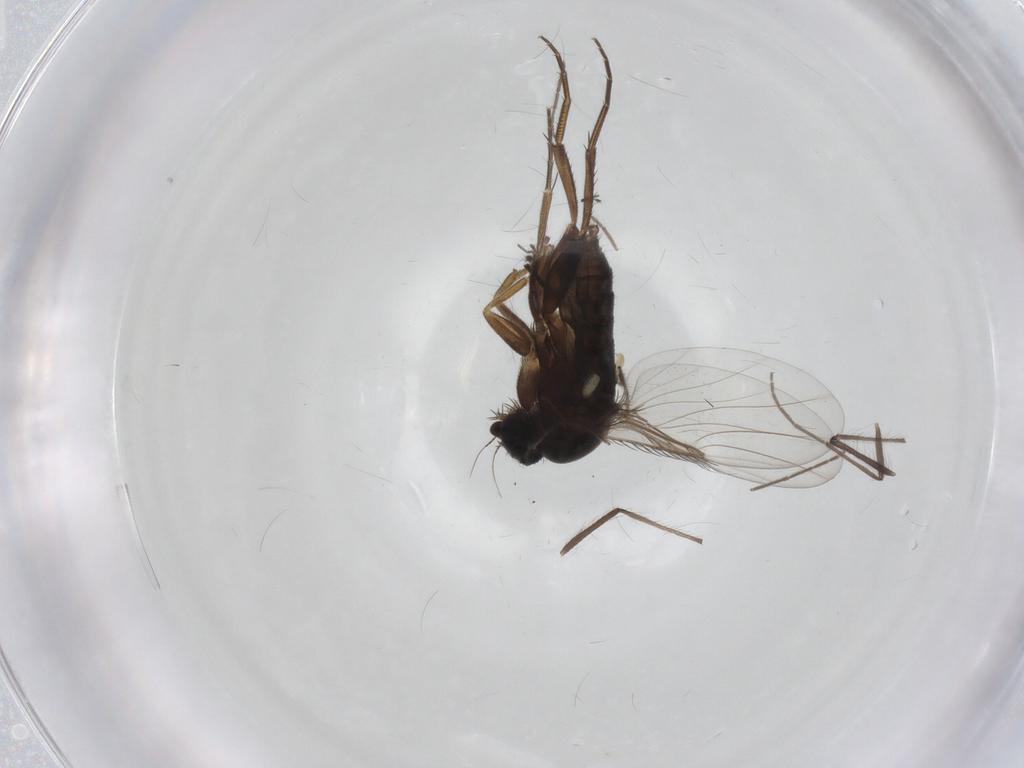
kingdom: Animalia
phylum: Arthropoda
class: Insecta
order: Diptera
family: Phoridae
